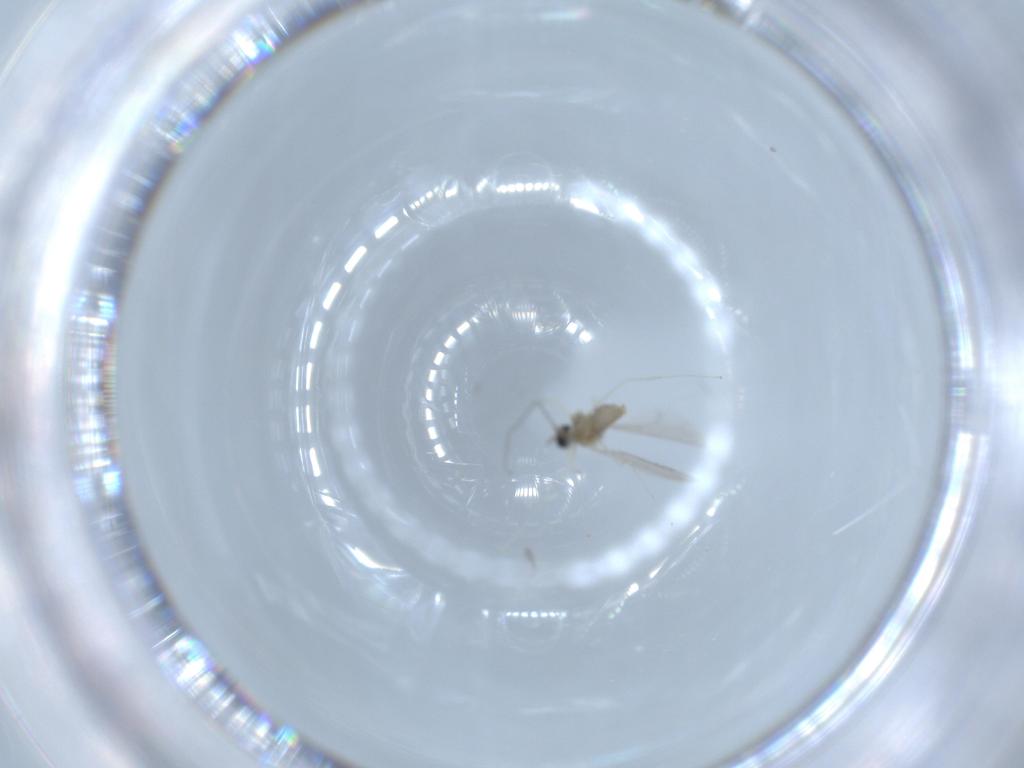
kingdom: Animalia
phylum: Arthropoda
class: Insecta
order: Diptera
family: Cecidomyiidae
